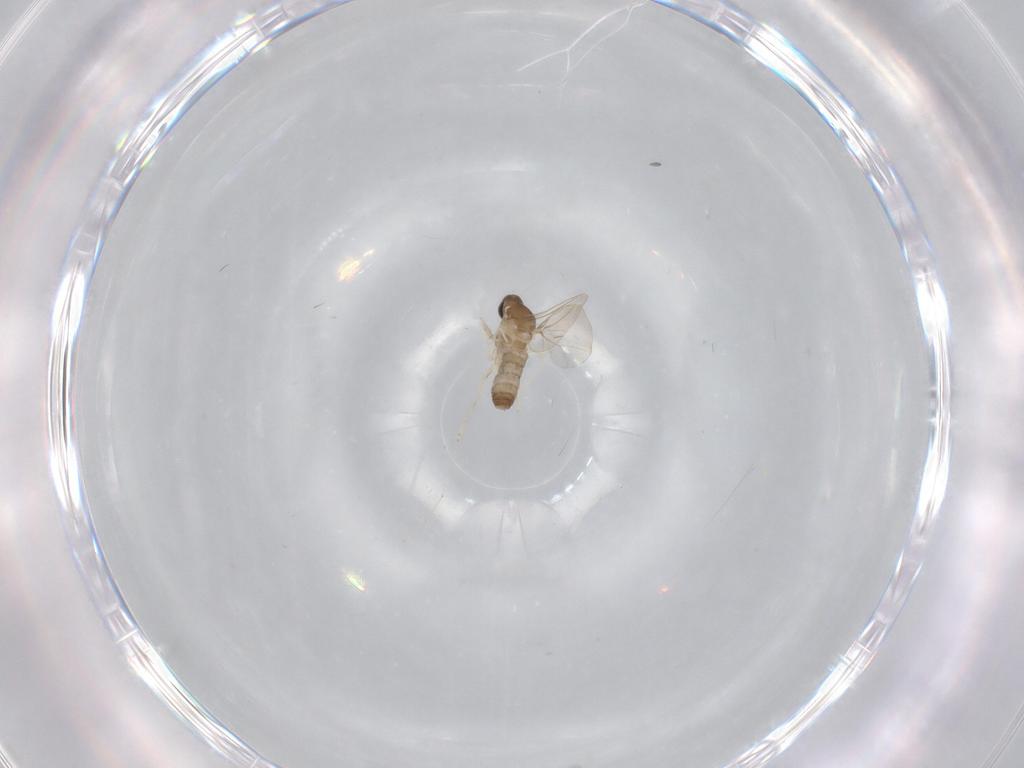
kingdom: Animalia
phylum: Arthropoda
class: Insecta
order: Diptera
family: Cecidomyiidae
